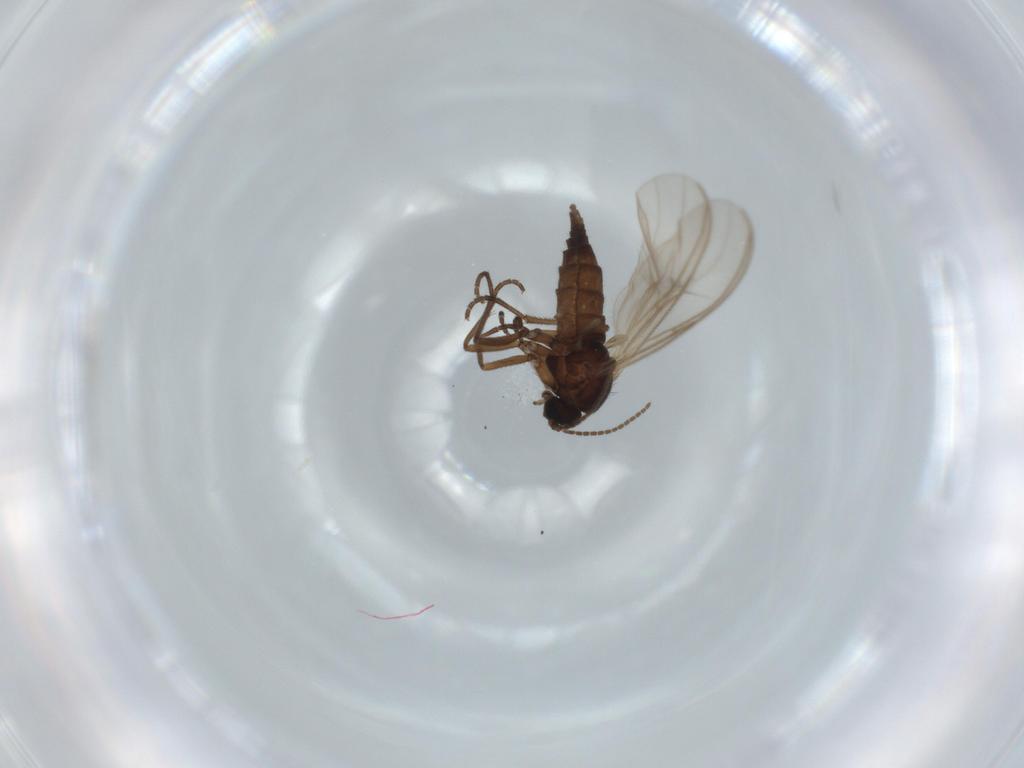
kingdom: Animalia
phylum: Arthropoda
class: Insecta
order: Diptera
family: Sciaridae
